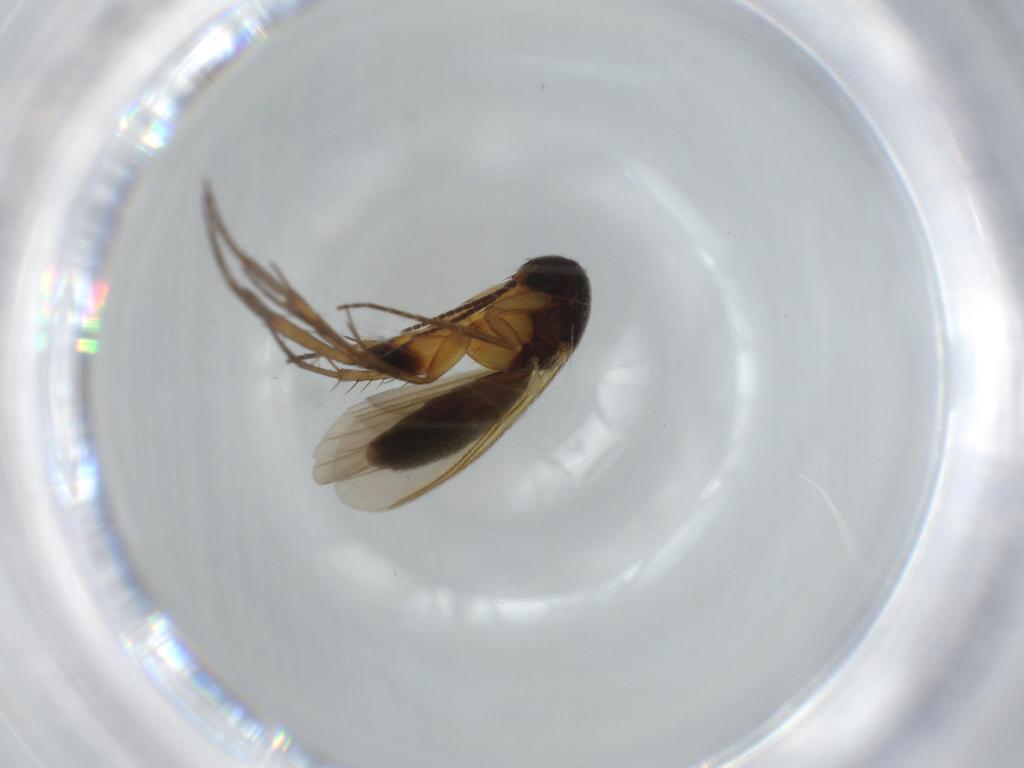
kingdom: Animalia
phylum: Arthropoda
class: Insecta
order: Diptera
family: Mycetophilidae
